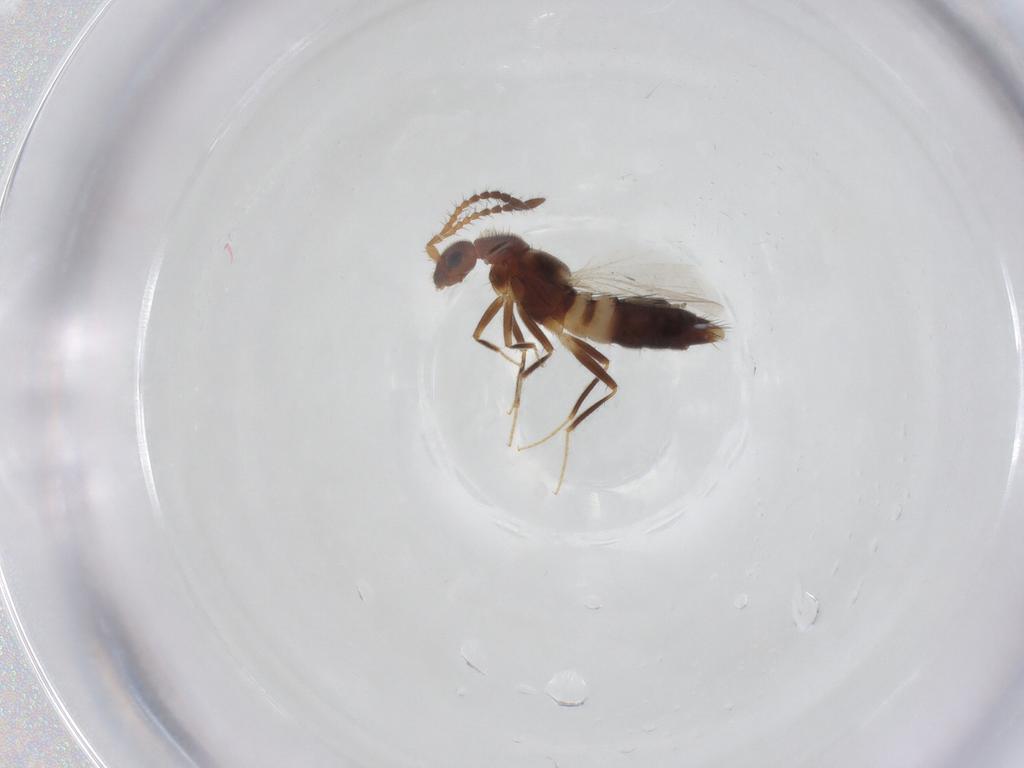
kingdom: Animalia
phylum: Arthropoda
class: Insecta
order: Coleoptera
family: Staphylinidae
